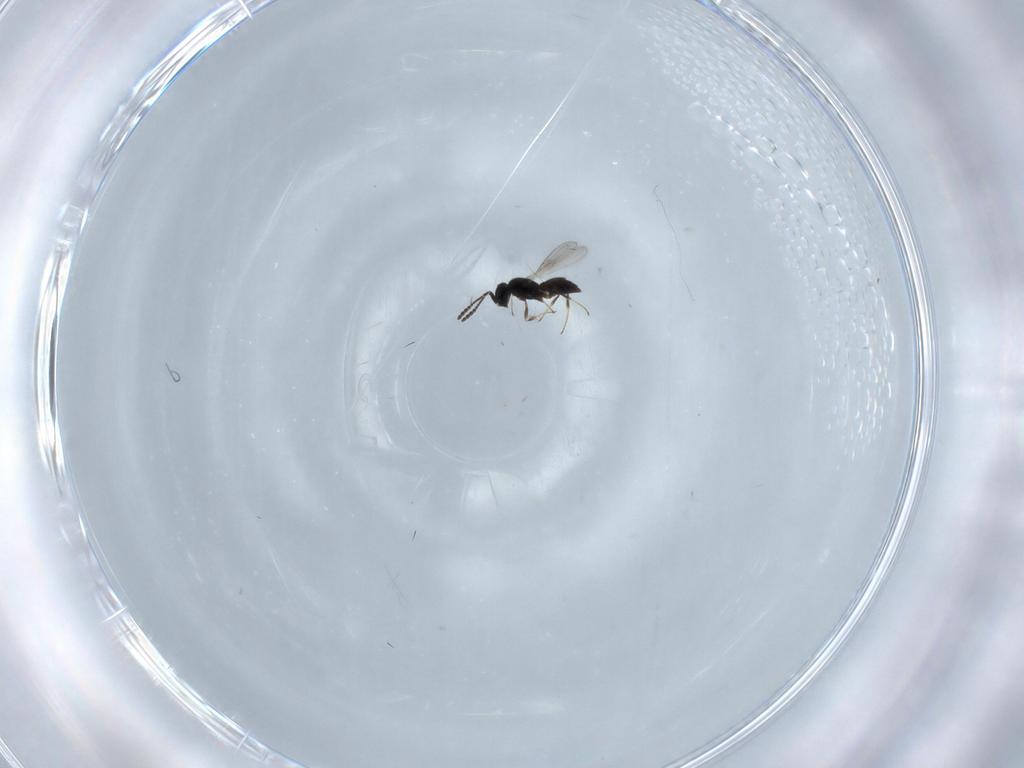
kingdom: Animalia
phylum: Arthropoda
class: Insecta
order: Hymenoptera
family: Scelionidae
